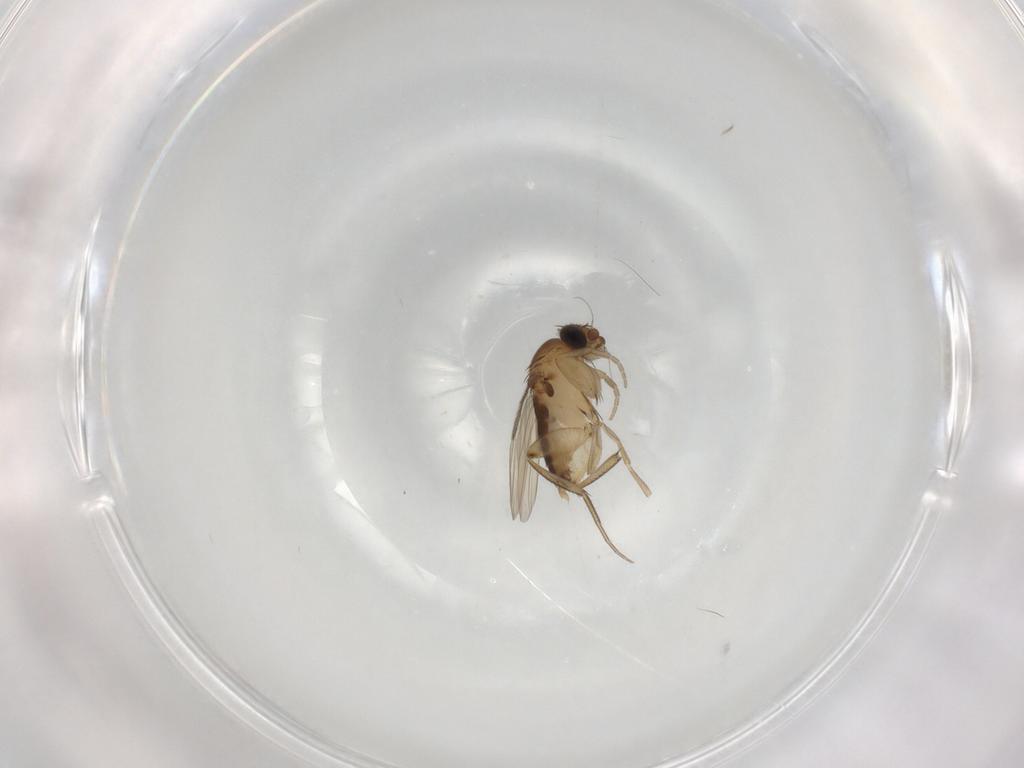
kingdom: Animalia
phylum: Arthropoda
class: Insecta
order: Diptera
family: Phoridae
